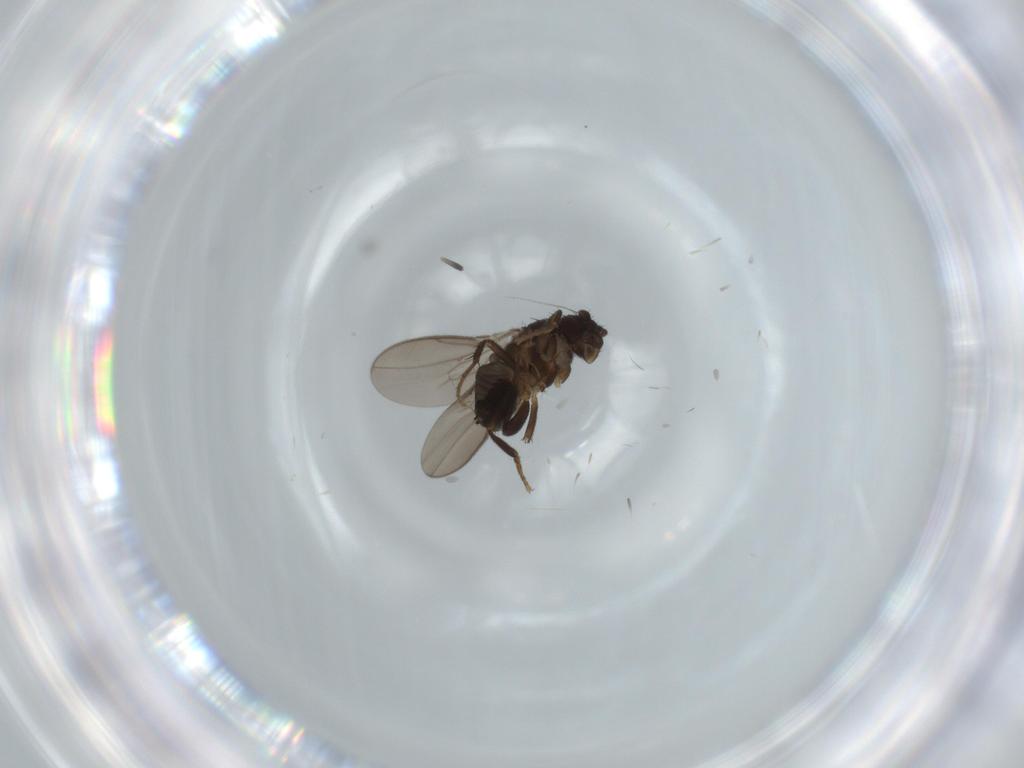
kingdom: Animalia
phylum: Arthropoda
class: Insecta
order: Diptera
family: Sphaeroceridae
